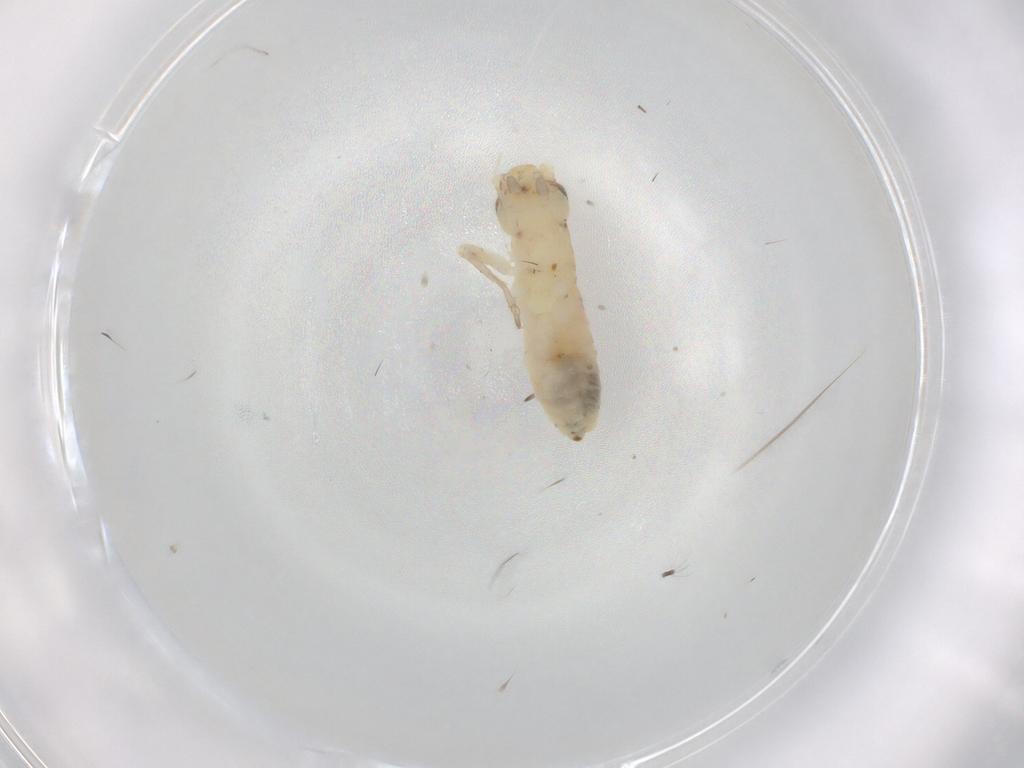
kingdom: Animalia
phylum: Arthropoda
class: Insecta
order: Orthoptera
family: Gryllidae
